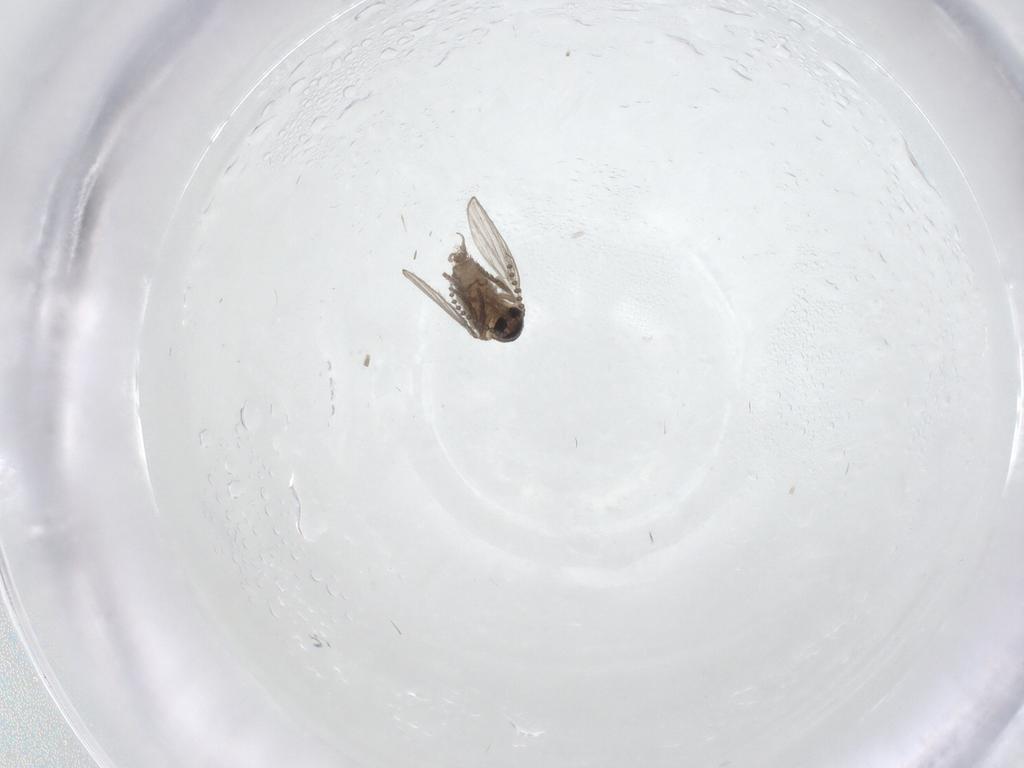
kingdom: Animalia
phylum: Arthropoda
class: Insecta
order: Diptera
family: Psychodidae
